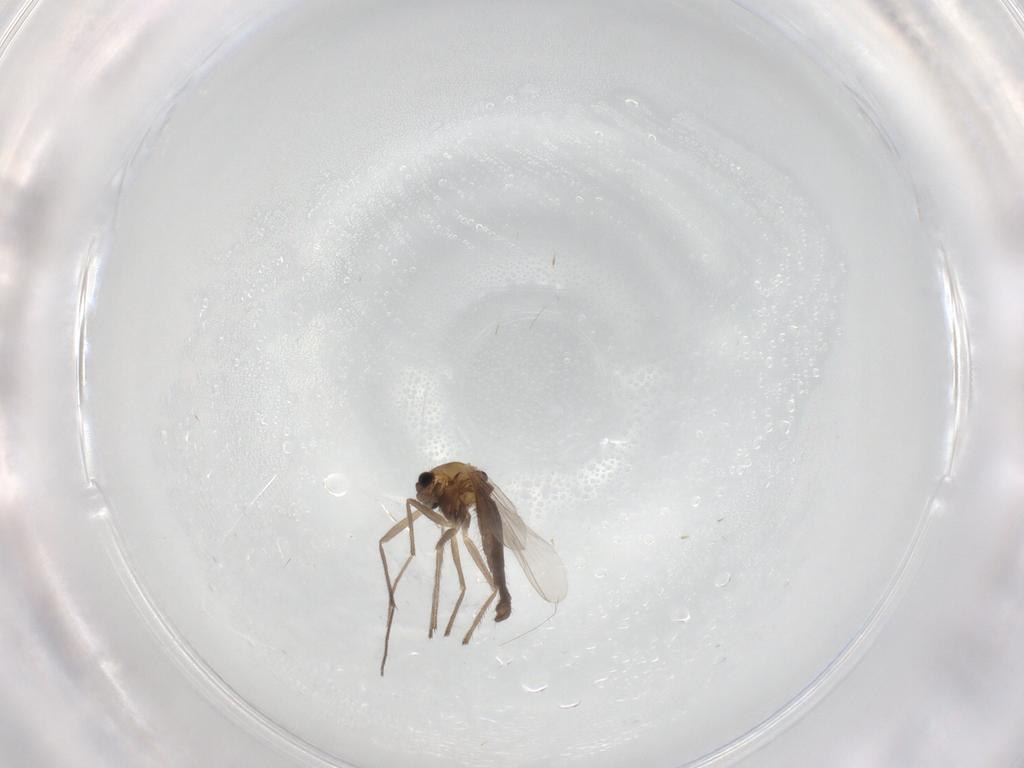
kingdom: Animalia
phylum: Arthropoda
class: Insecta
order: Diptera
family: Chironomidae
